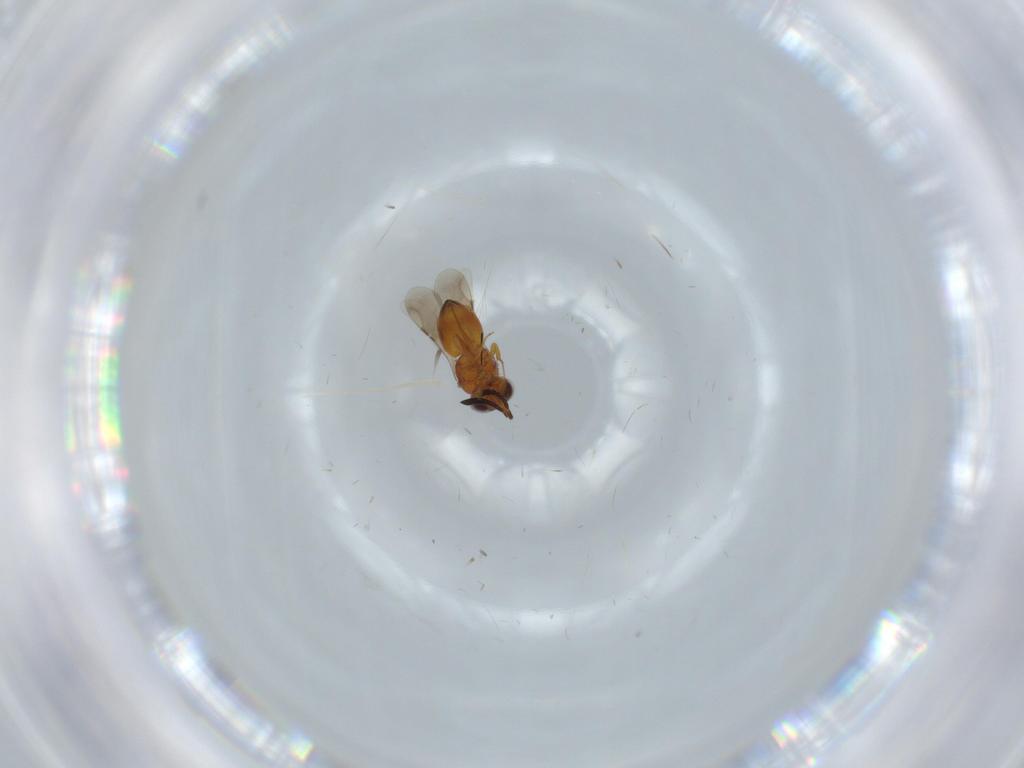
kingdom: Animalia
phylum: Arthropoda
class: Insecta
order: Hymenoptera
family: Ceraphronidae
